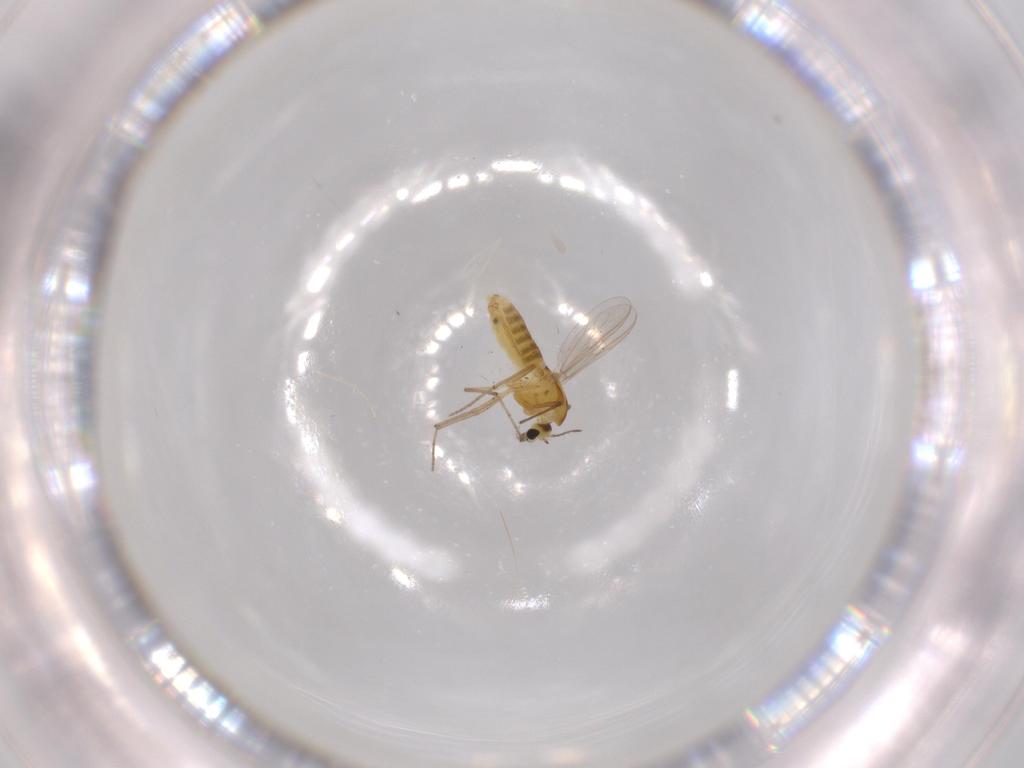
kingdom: Animalia
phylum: Arthropoda
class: Insecta
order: Diptera
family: Chironomidae
